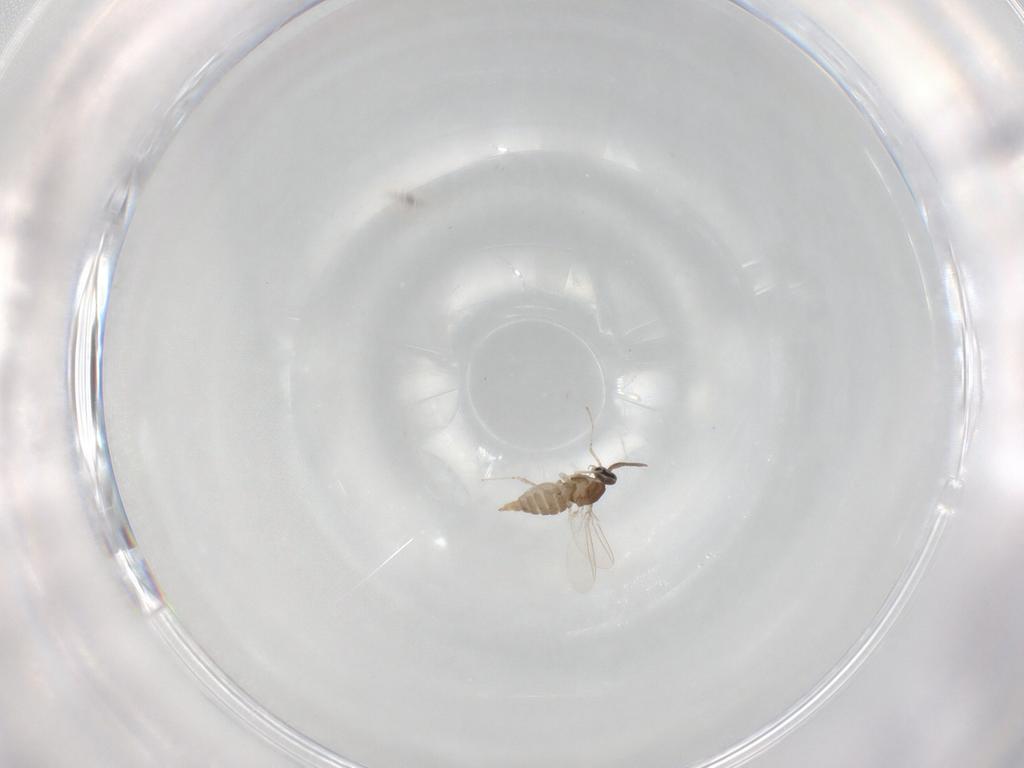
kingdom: Animalia
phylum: Arthropoda
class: Insecta
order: Diptera
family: Cecidomyiidae
